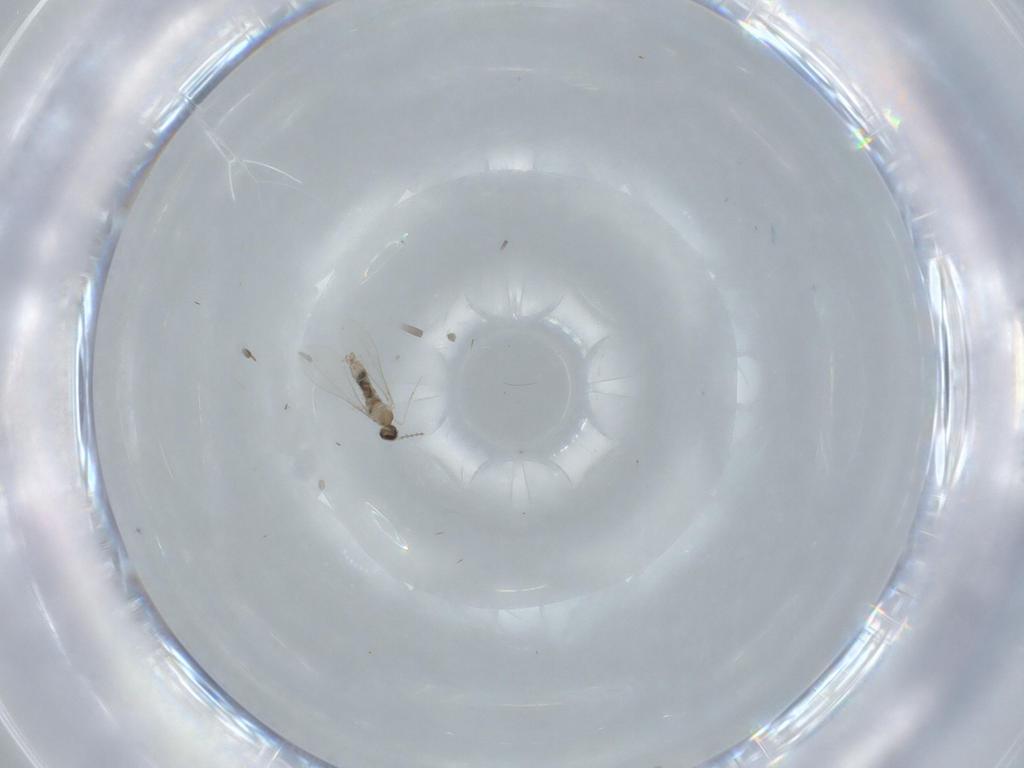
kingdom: Animalia
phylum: Arthropoda
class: Insecta
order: Diptera
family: Cecidomyiidae
